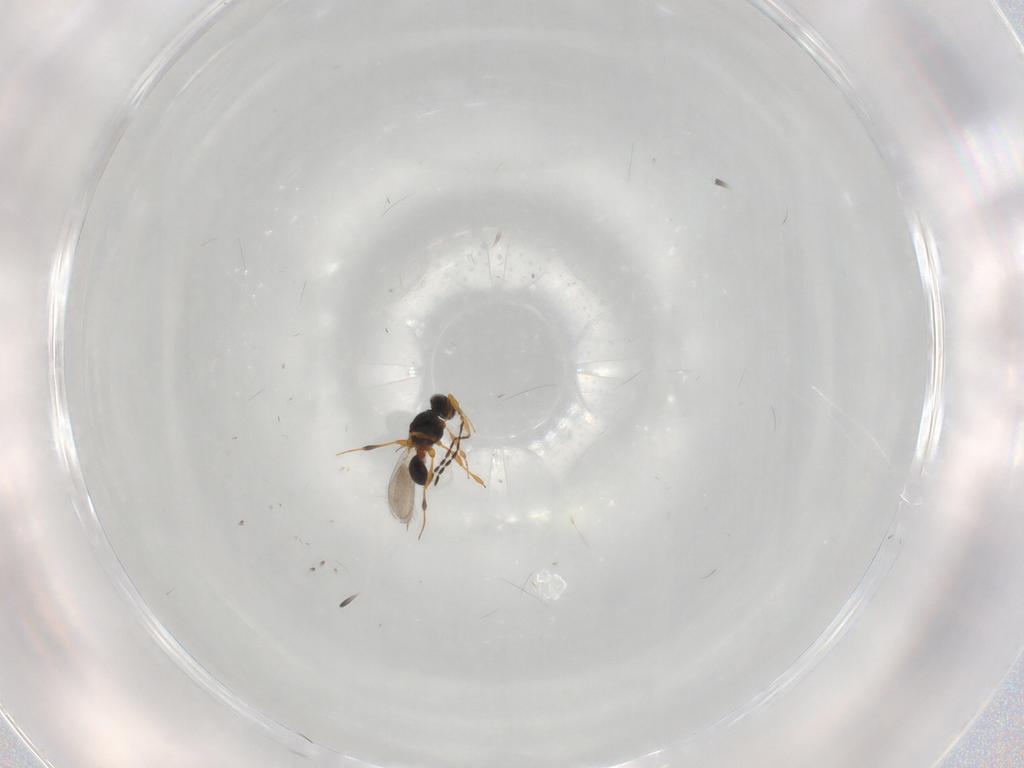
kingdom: Animalia
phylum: Arthropoda
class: Insecta
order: Hymenoptera
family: Platygastridae
